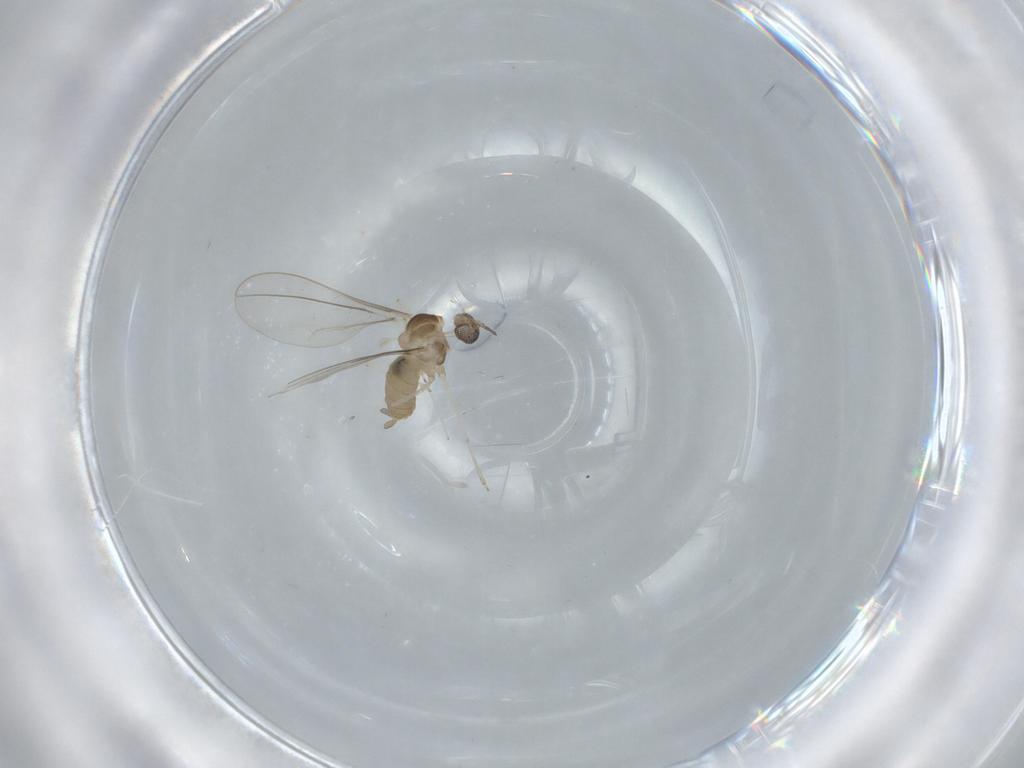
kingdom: Animalia
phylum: Arthropoda
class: Insecta
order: Diptera
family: Cecidomyiidae
